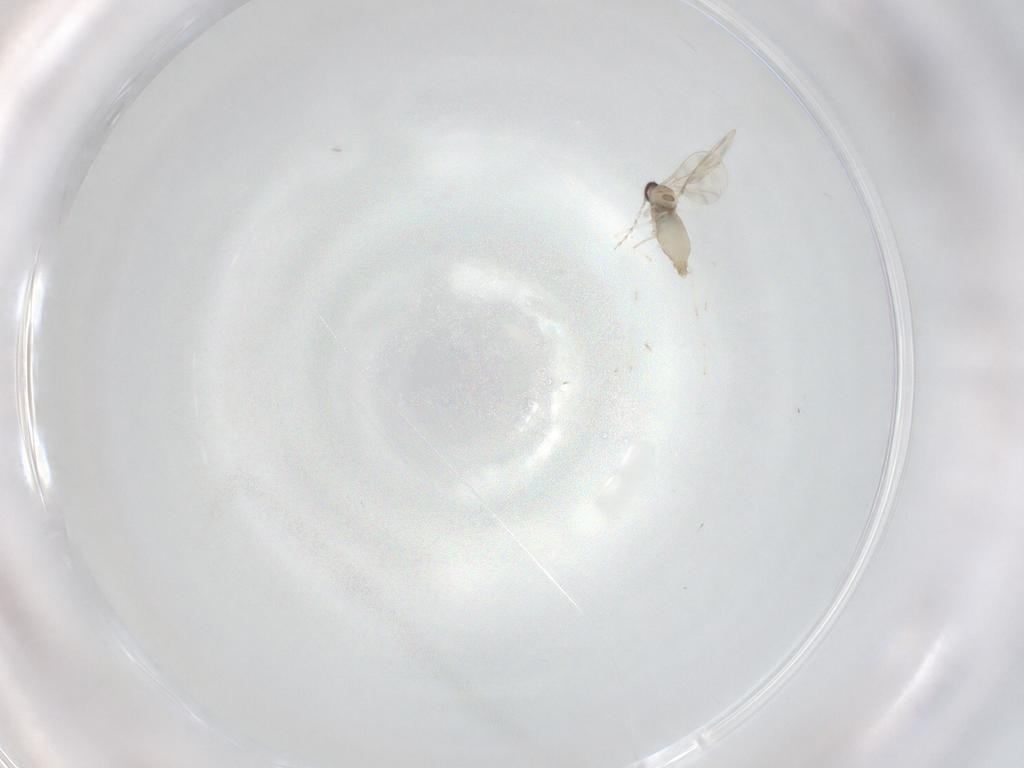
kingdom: Animalia
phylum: Arthropoda
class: Insecta
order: Diptera
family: Cecidomyiidae
